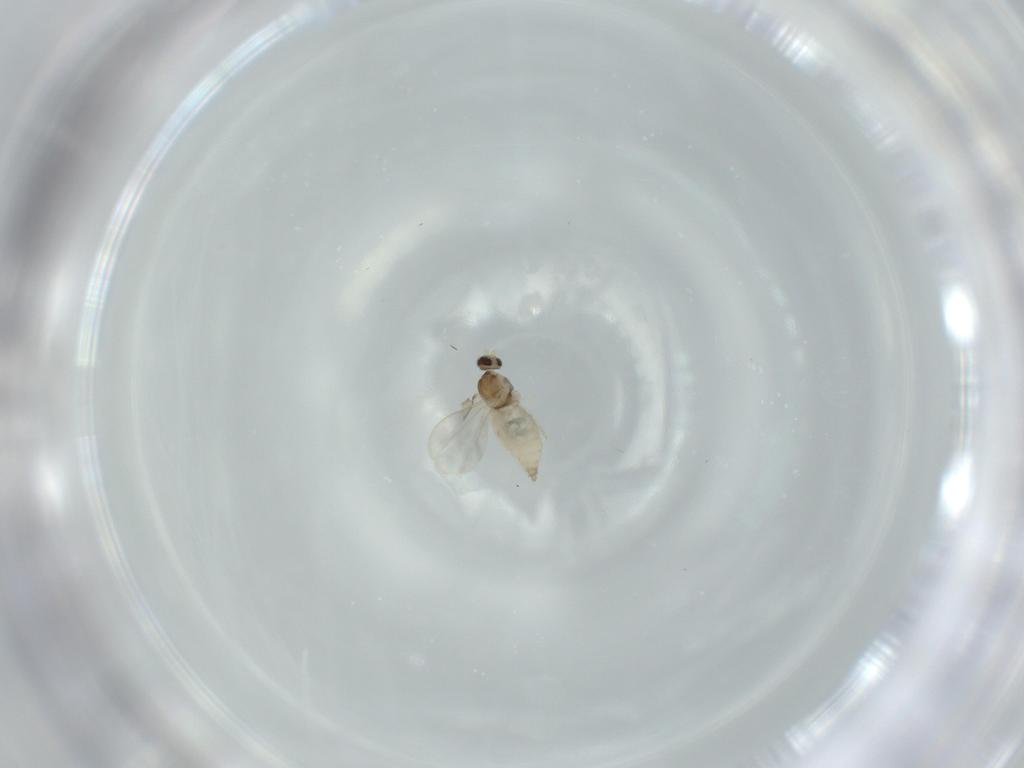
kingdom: Animalia
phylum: Arthropoda
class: Insecta
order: Diptera
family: Cecidomyiidae
